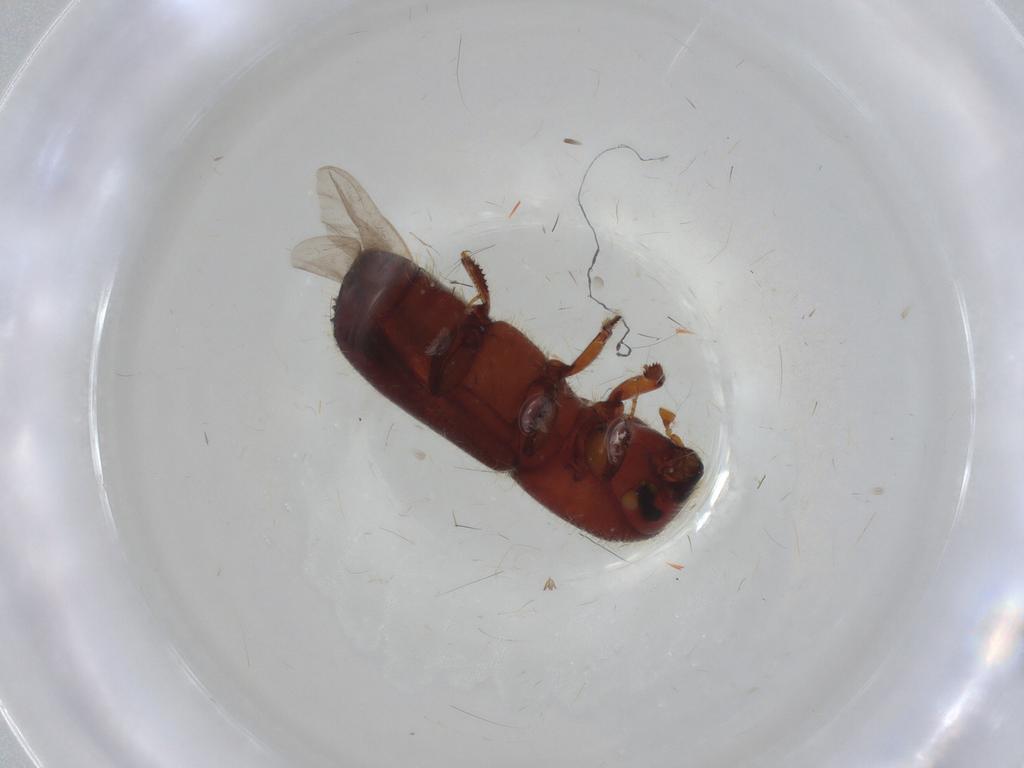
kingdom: Animalia
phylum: Arthropoda
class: Insecta
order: Coleoptera
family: Curculionidae
